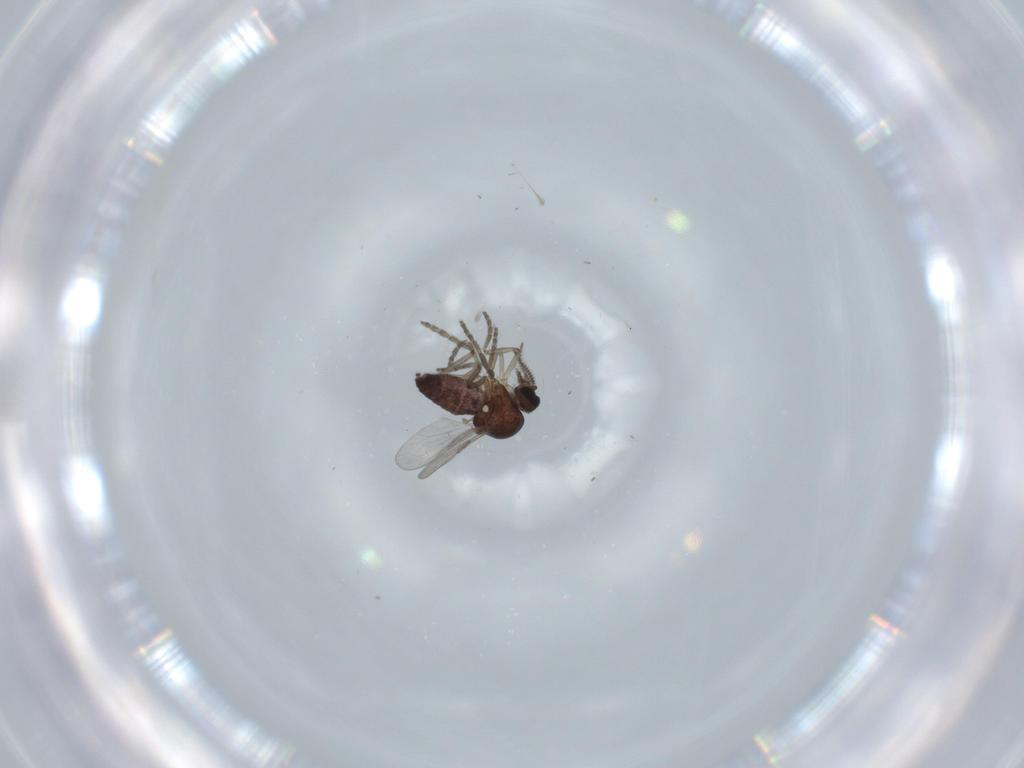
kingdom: Animalia
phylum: Arthropoda
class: Insecta
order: Diptera
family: Ceratopogonidae
